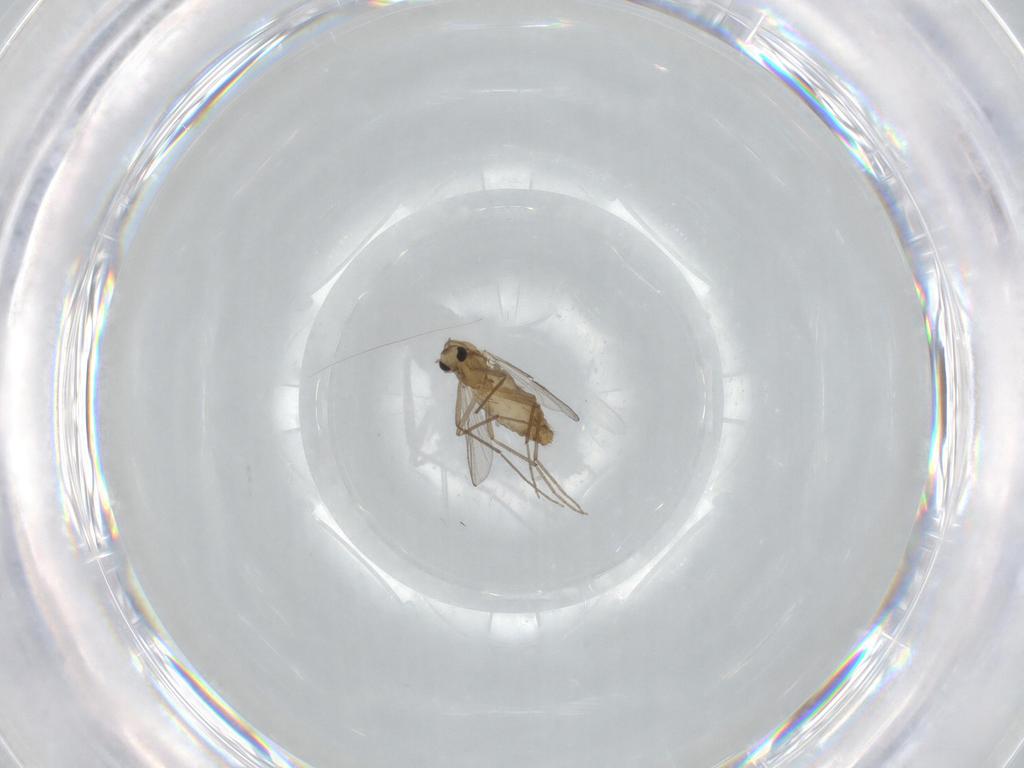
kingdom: Animalia
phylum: Arthropoda
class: Insecta
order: Diptera
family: Chironomidae
